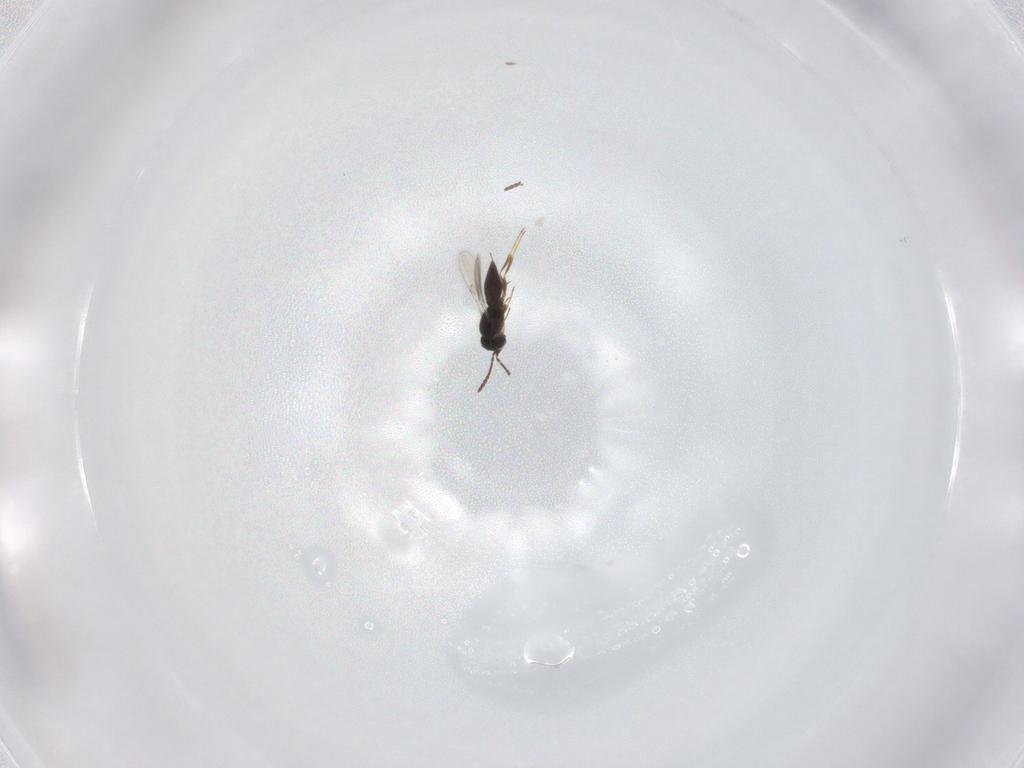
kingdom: Animalia
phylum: Arthropoda
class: Insecta
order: Hymenoptera
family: Scelionidae
